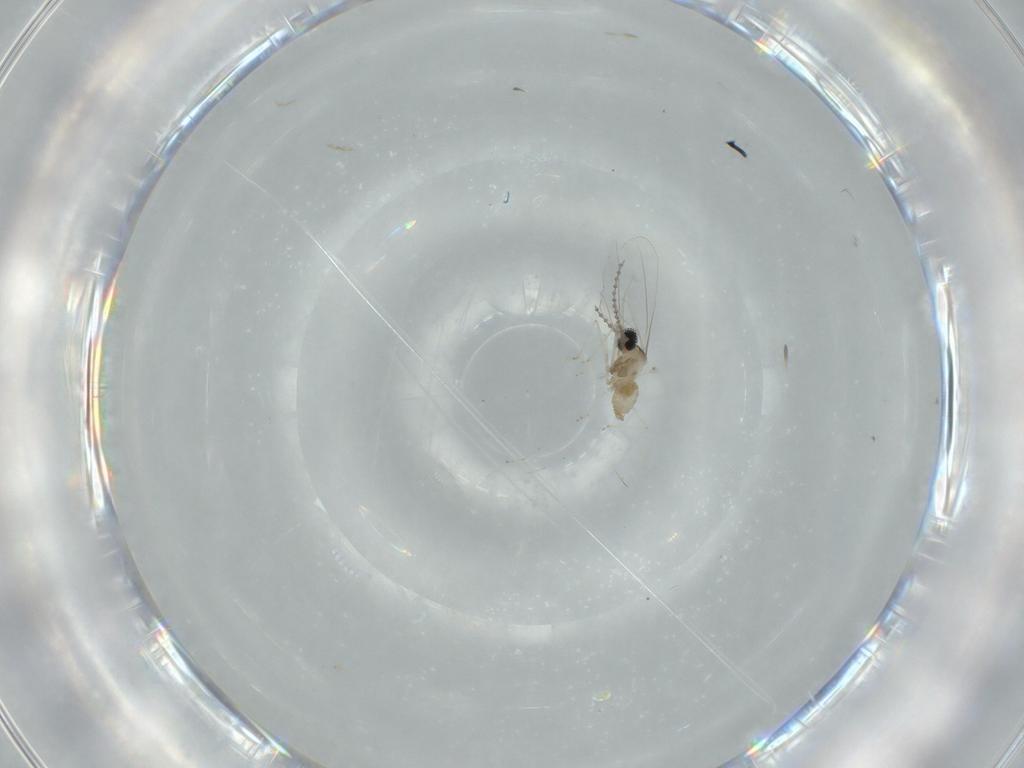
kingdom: Animalia
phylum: Arthropoda
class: Insecta
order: Diptera
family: Cecidomyiidae
